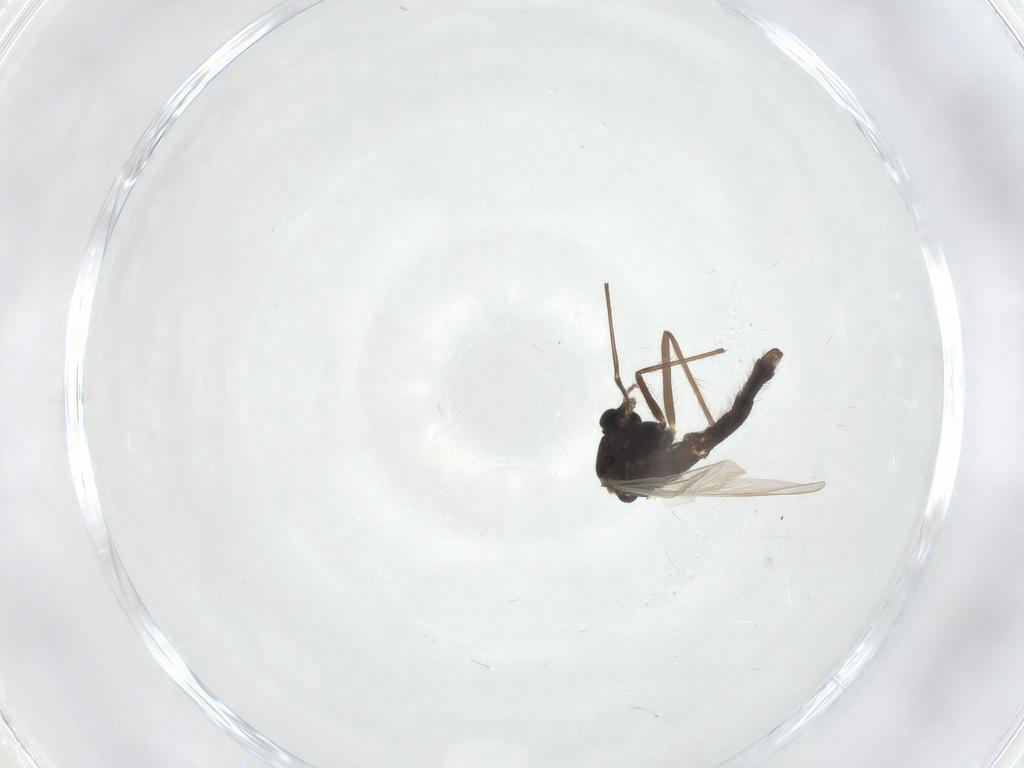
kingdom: Animalia
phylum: Arthropoda
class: Insecta
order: Diptera
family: Chironomidae
